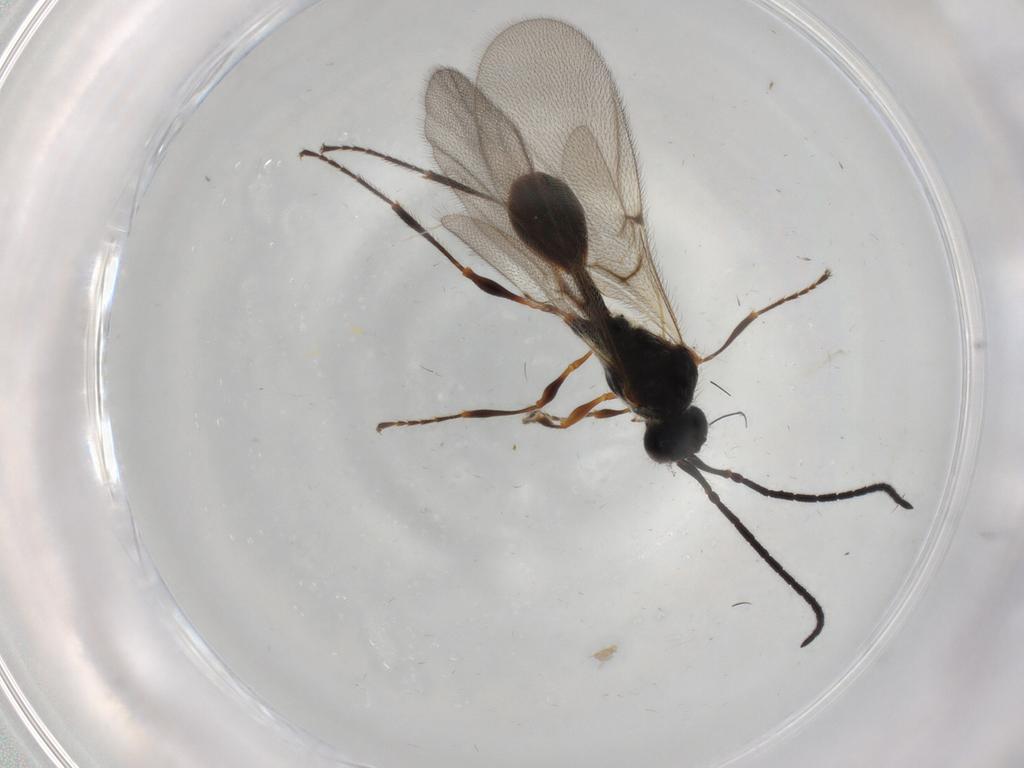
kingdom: Animalia
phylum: Arthropoda
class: Insecta
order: Hymenoptera
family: Diapriidae
